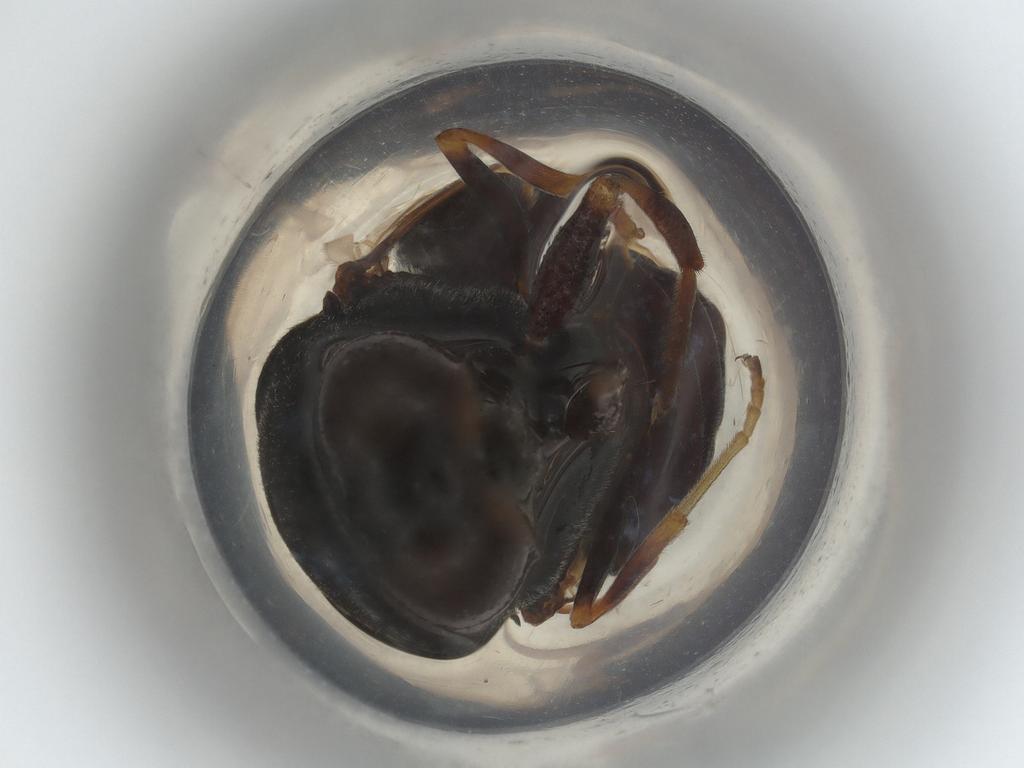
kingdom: Animalia
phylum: Arthropoda
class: Insecta
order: Diptera
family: Stratiomyidae
